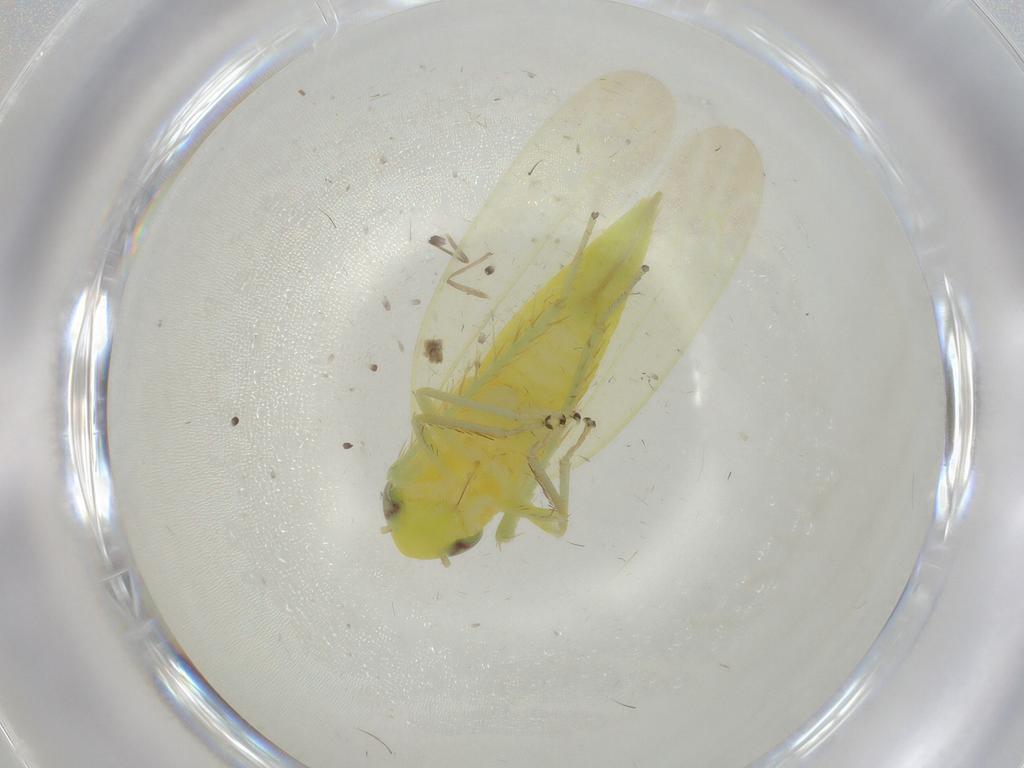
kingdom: Animalia
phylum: Arthropoda
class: Insecta
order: Hemiptera
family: Cicadellidae
